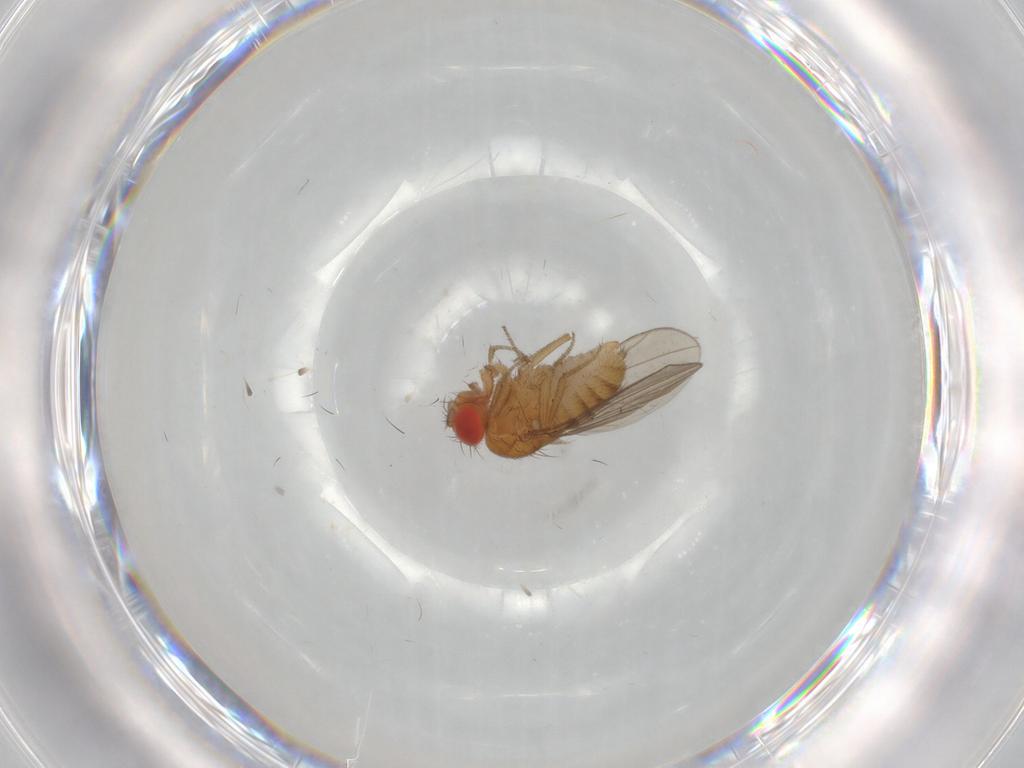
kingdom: Animalia
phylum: Arthropoda
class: Insecta
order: Diptera
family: Drosophilidae
